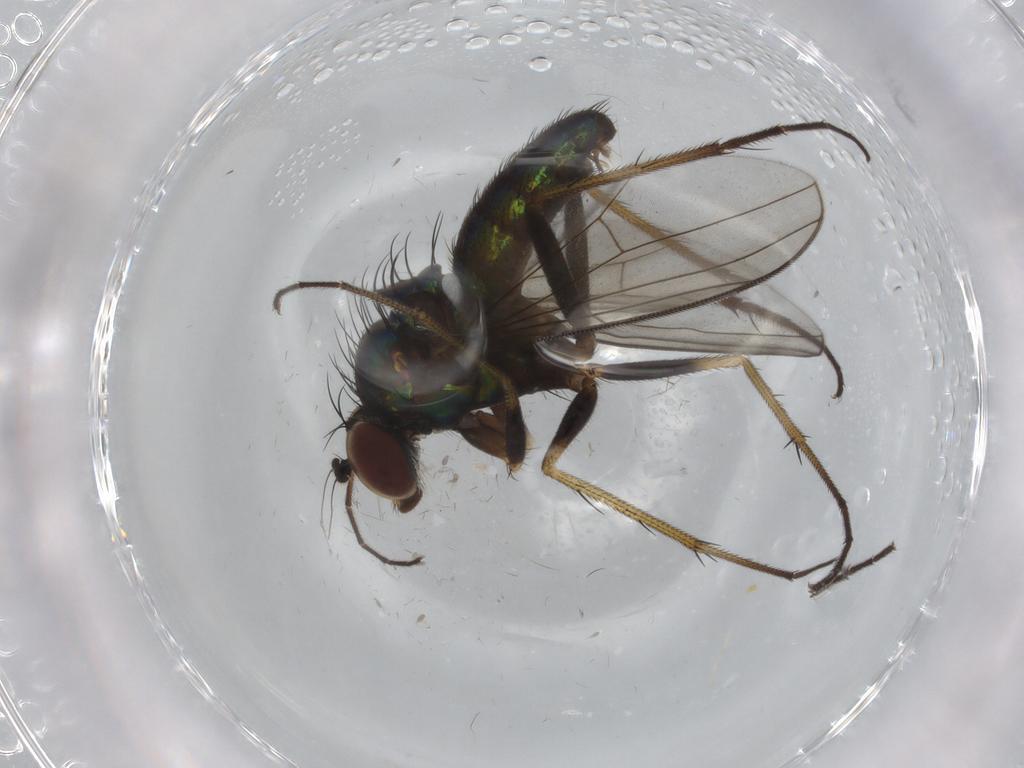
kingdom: Animalia
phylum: Arthropoda
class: Insecta
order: Diptera
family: Dolichopodidae
